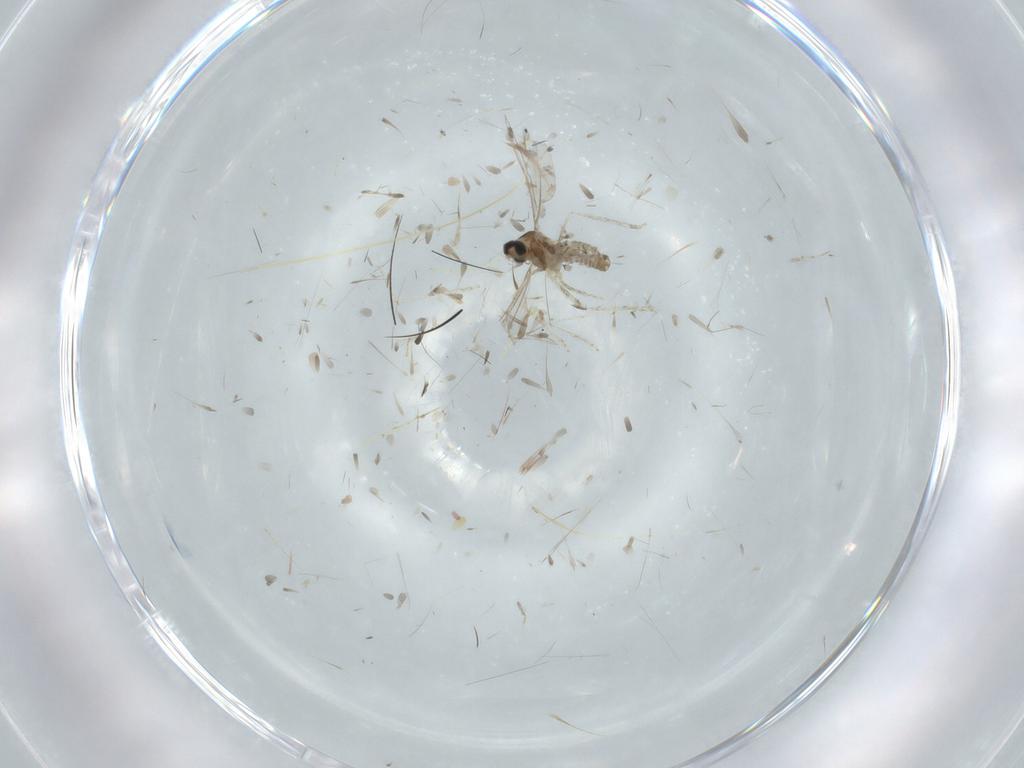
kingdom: Animalia
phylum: Arthropoda
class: Insecta
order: Diptera
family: Cecidomyiidae
